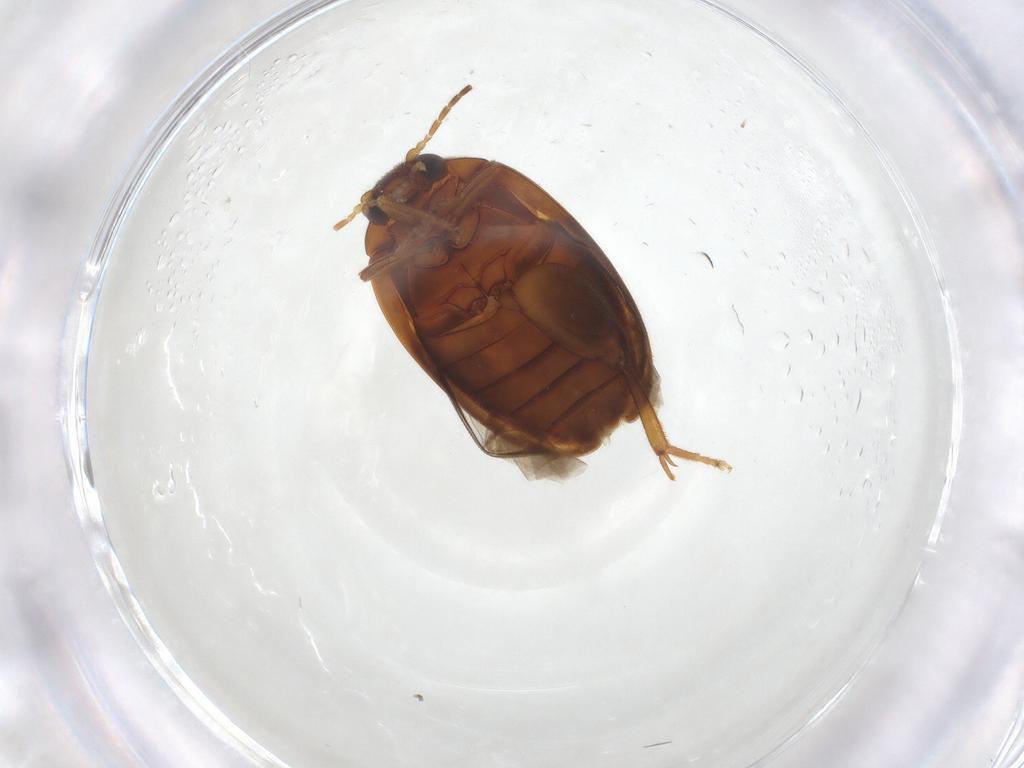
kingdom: Animalia
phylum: Arthropoda
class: Insecta
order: Coleoptera
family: Scirtidae
